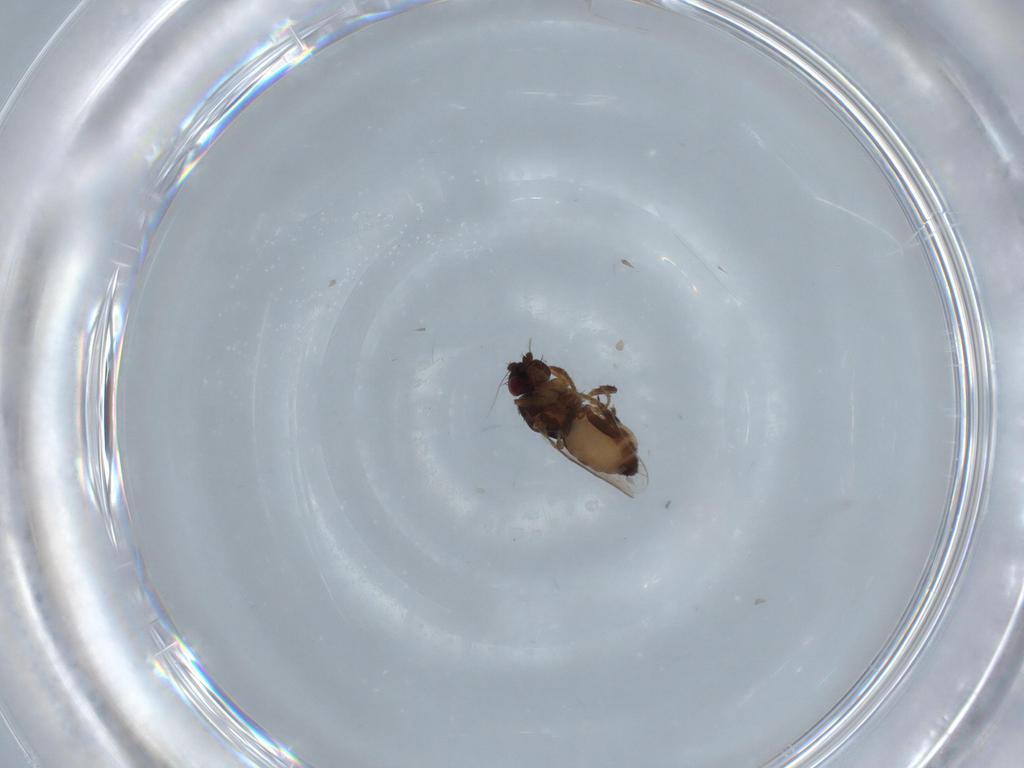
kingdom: Animalia
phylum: Arthropoda
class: Insecta
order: Diptera
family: Sphaeroceridae
